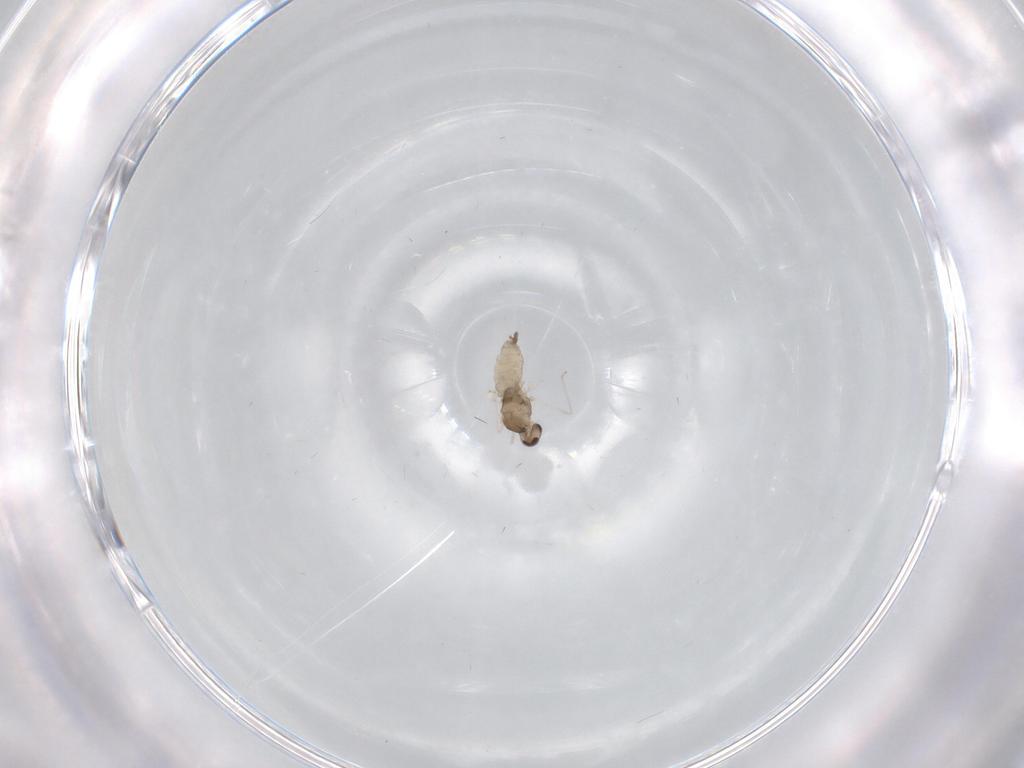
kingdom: Animalia
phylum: Arthropoda
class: Insecta
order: Diptera
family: Cecidomyiidae
